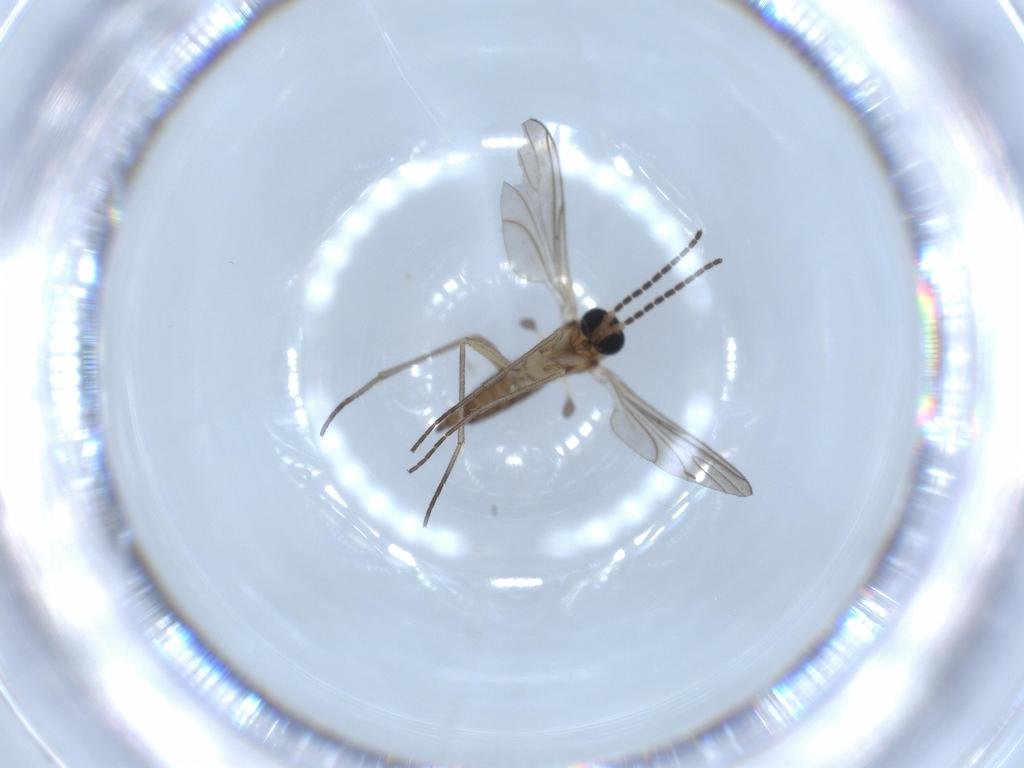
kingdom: Animalia
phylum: Arthropoda
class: Insecta
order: Diptera
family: Sciaridae
